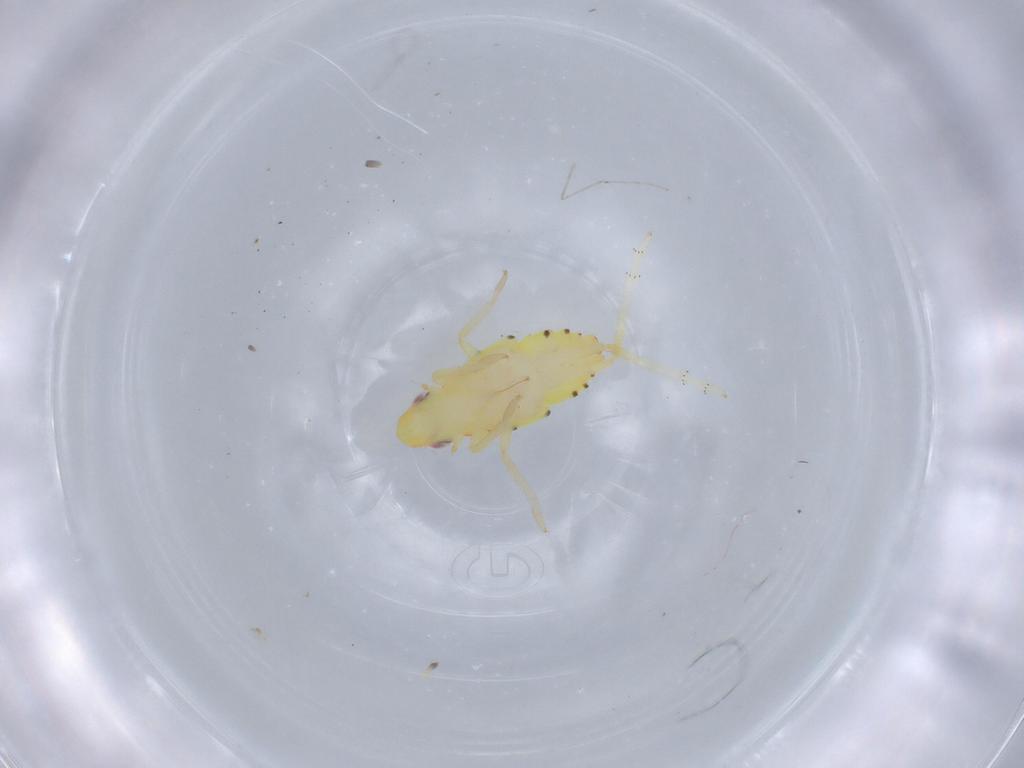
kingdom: Animalia
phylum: Arthropoda
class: Insecta
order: Hemiptera
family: Tropiduchidae
